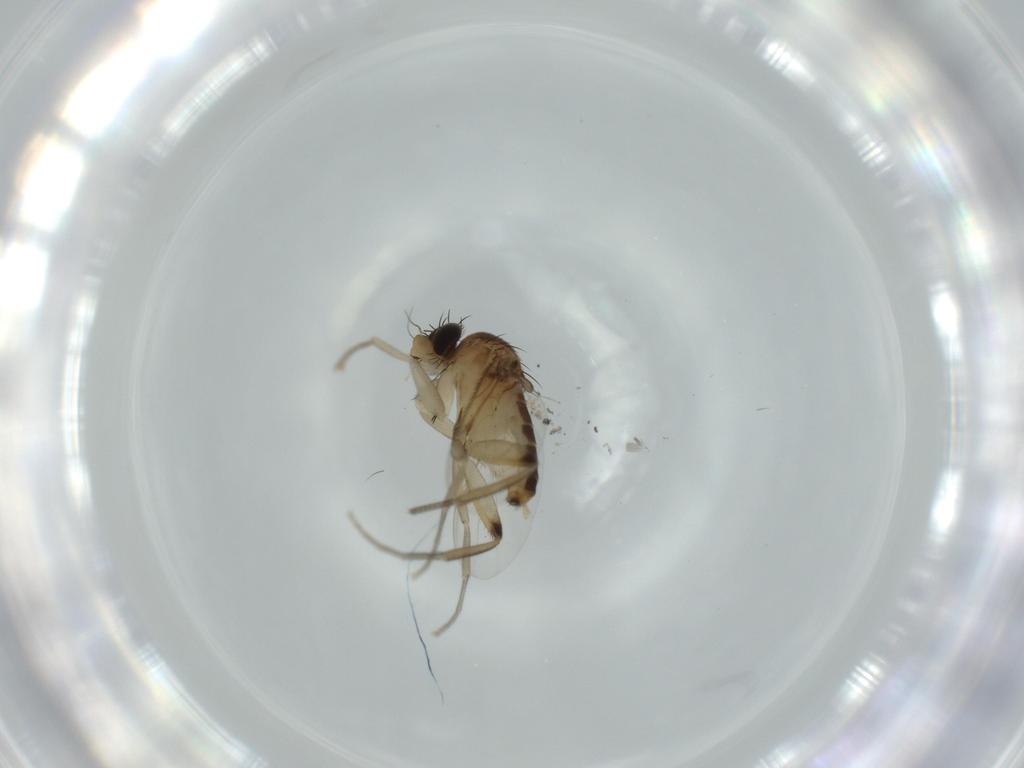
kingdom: Animalia
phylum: Arthropoda
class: Insecta
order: Diptera
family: Phoridae
